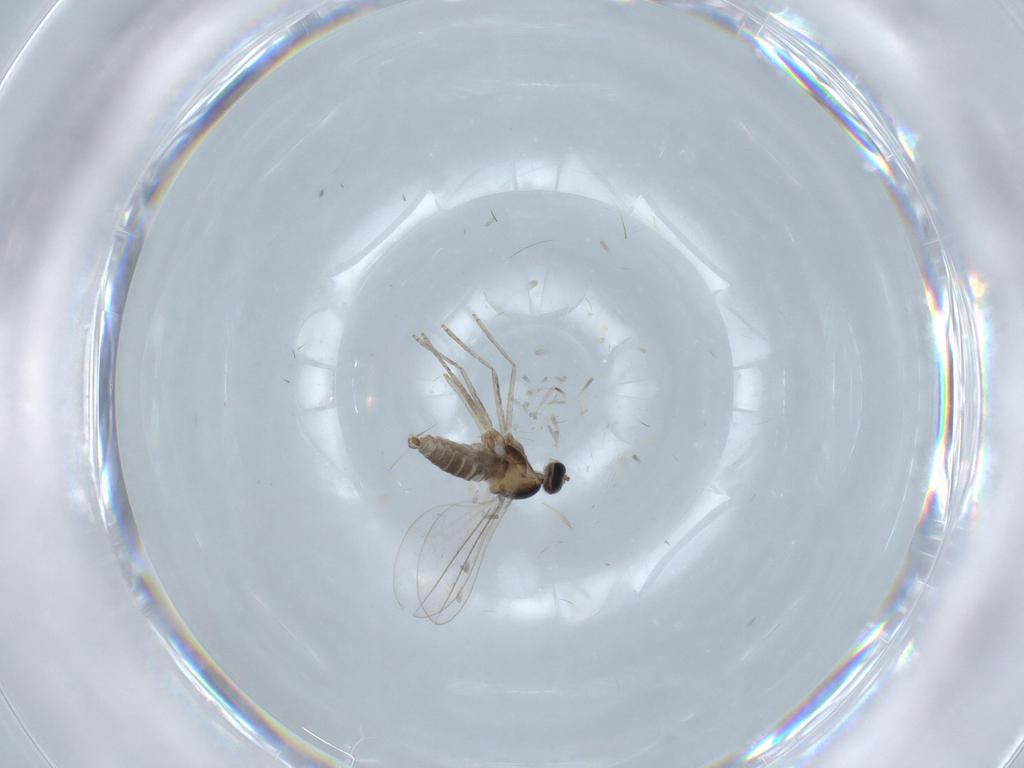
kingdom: Animalia
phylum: Arthropoda
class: Insecta
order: Diptera
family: Cecidomyiidae
